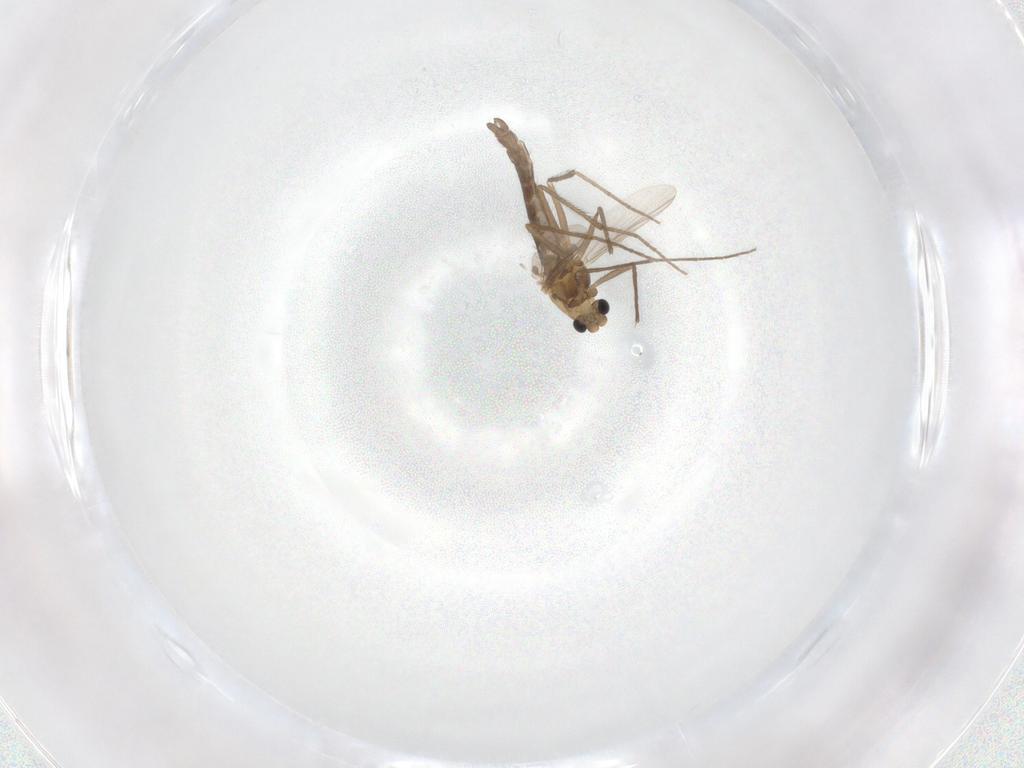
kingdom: Animalia
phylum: Arthropoda
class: Insecta
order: Diptera
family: Chironomidae
